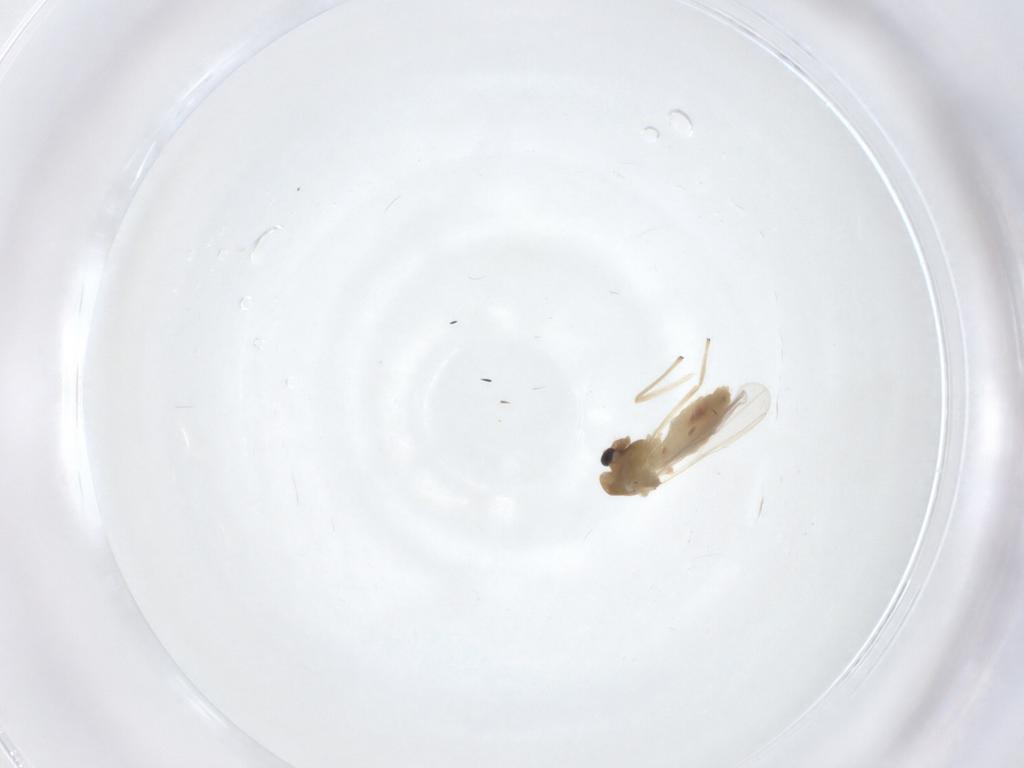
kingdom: Animalia
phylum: Arthropoda
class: Insecta
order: Diptera
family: Chironomidae
